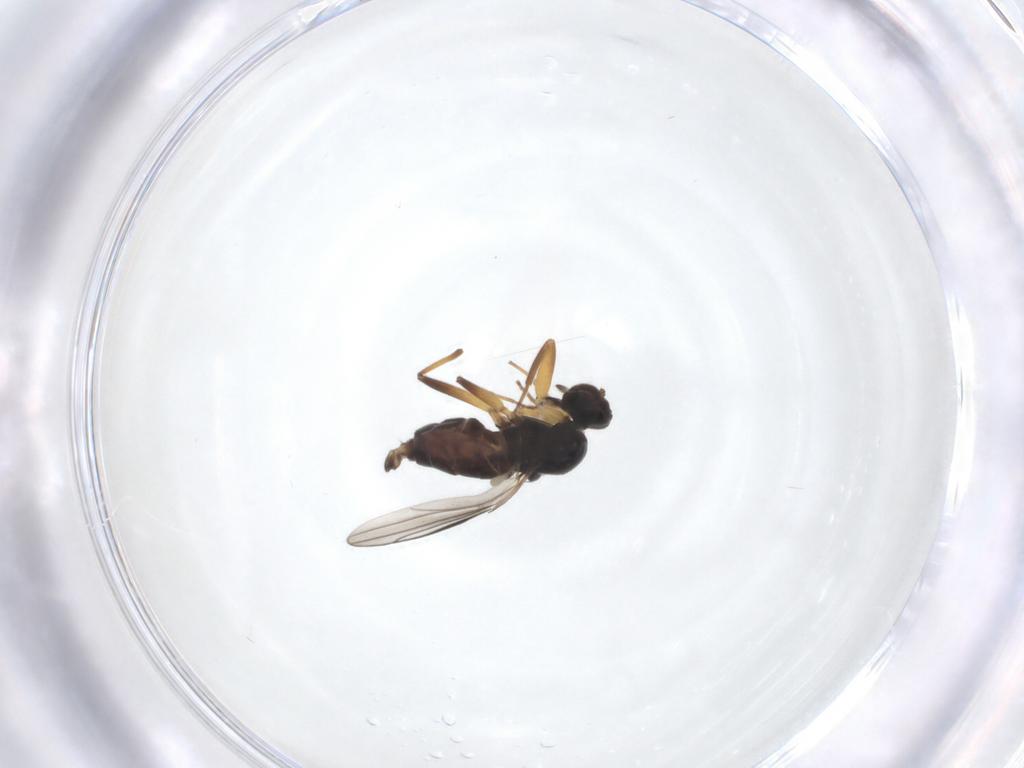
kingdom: Animalia
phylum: Arthropoda
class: Insecta
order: Diptera
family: Hybotidae
